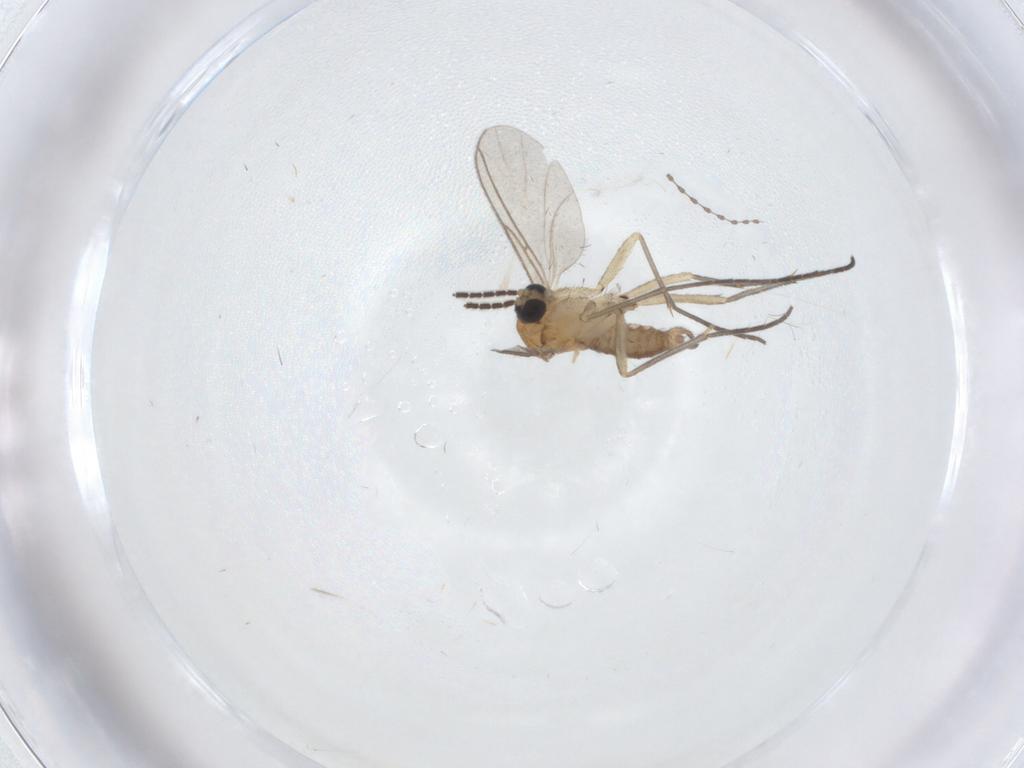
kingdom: Animalia
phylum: Arthropoda
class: Insecta
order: Diptera
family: Sciaridae
